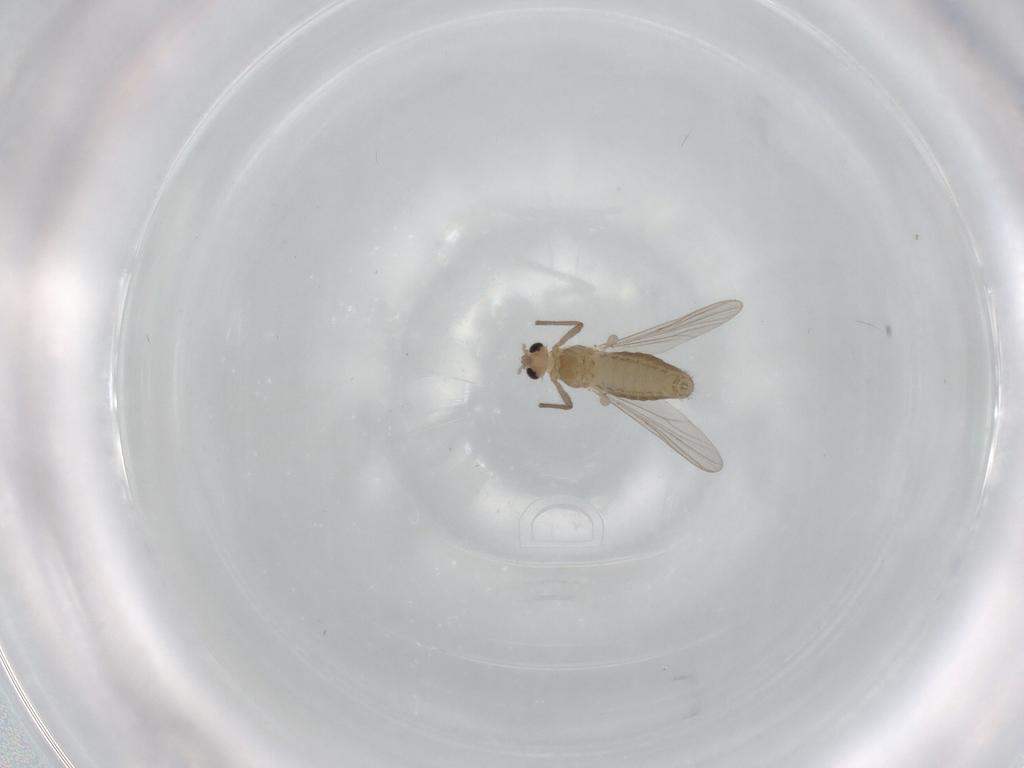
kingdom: Animalia
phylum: Arthropoda
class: Insecta
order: Diptera
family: Chironomidae
